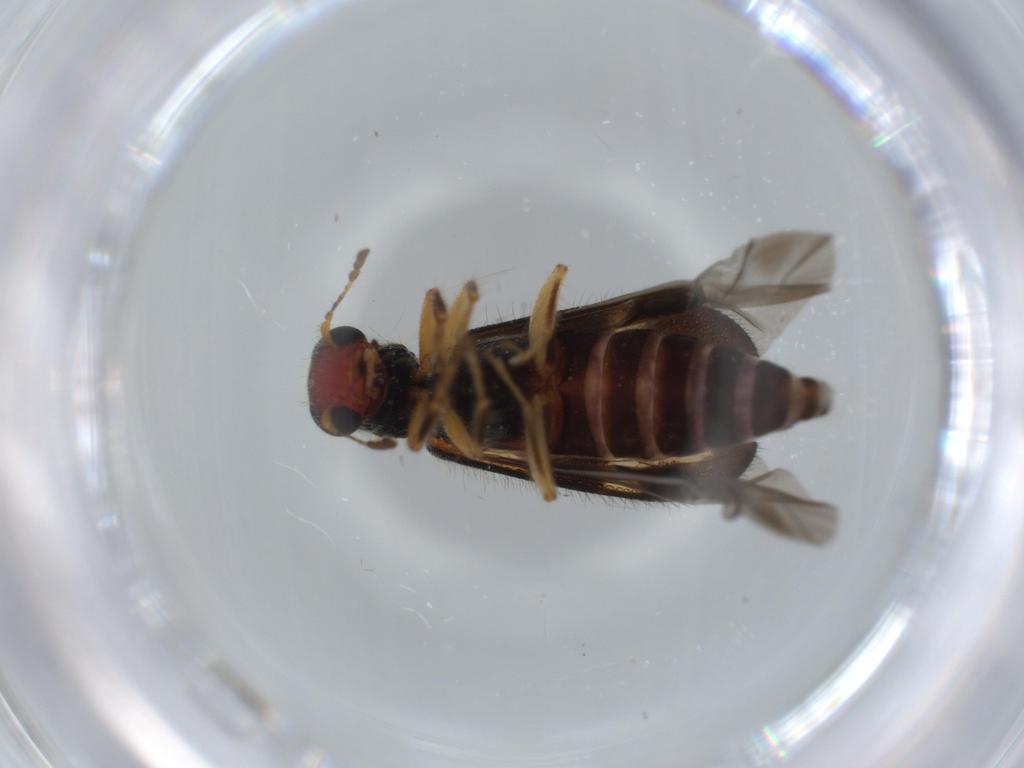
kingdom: Animalia
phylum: Arthropoda
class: Insecta
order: Coleoptera
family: Cleridae
